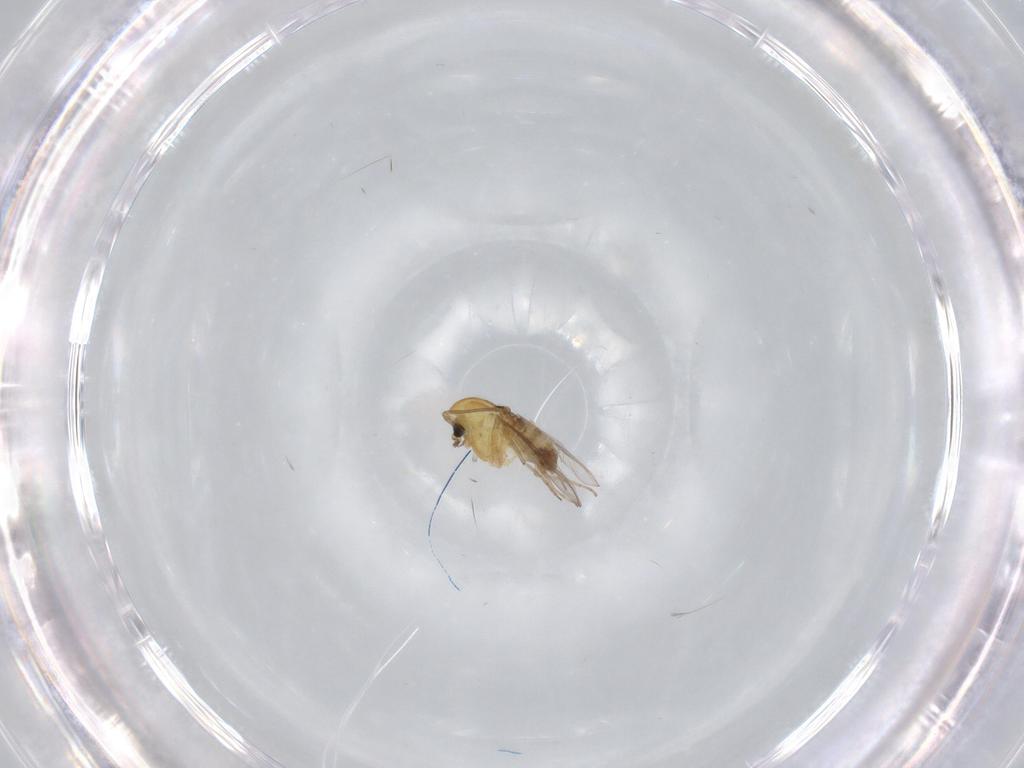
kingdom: Animalia
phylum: Arthropoda
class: Insecta
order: Diptera
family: Chironomidae
